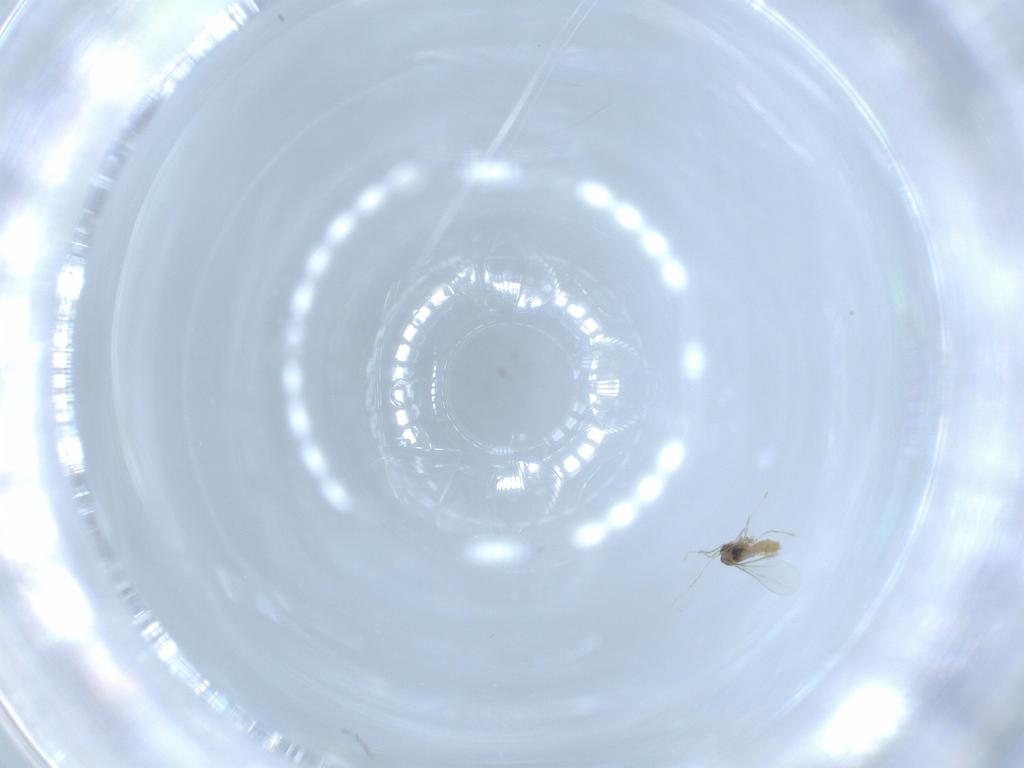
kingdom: Animalia
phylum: Arthropoda
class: Insecta
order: Diptera
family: Cecidomyiidae
